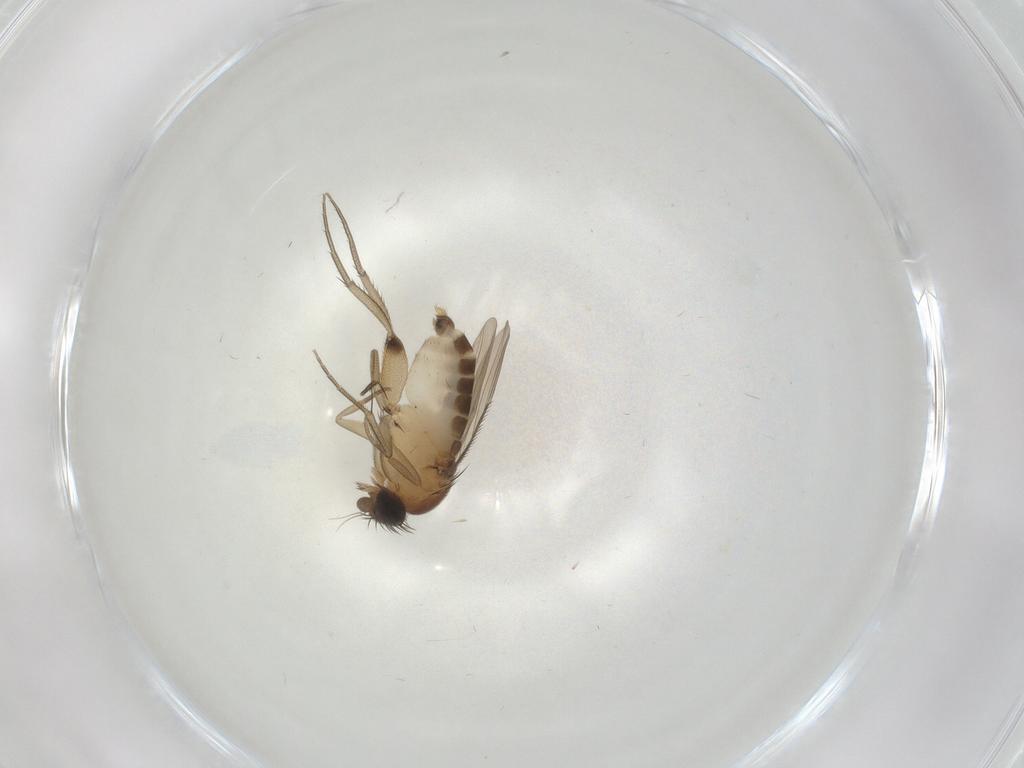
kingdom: Animalia
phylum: Arthropoda
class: Insecta
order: Diptera
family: Phoridae
